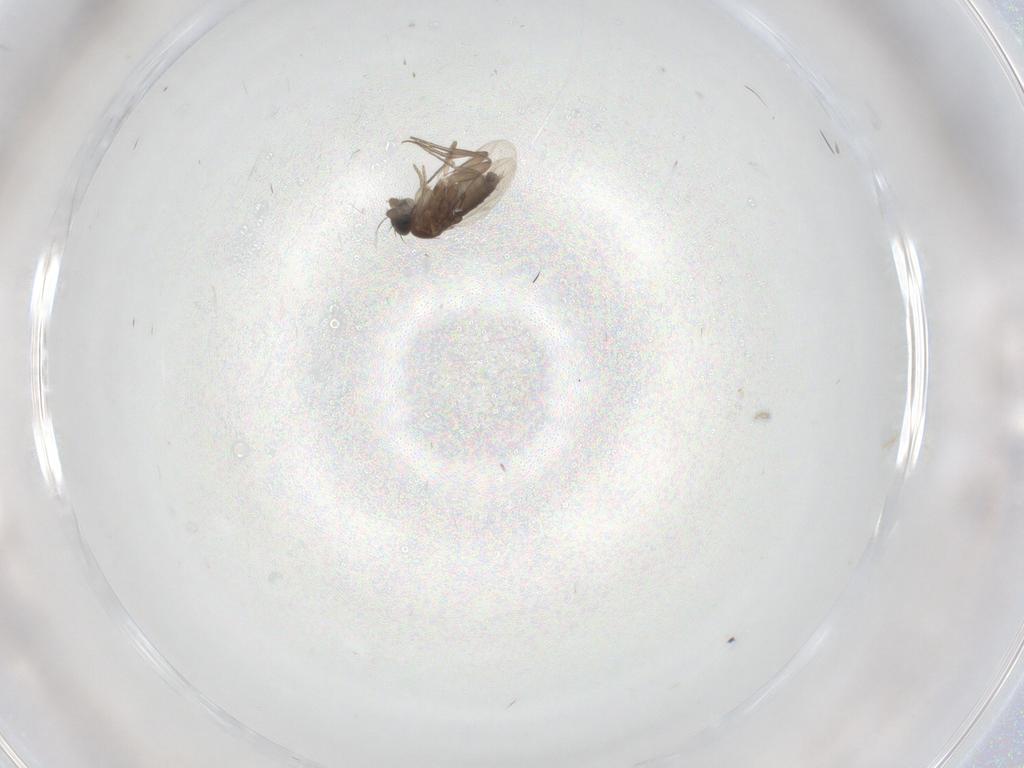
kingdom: Animalia
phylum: Arthropoda
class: Insecta
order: Diptera
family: Phoridae
